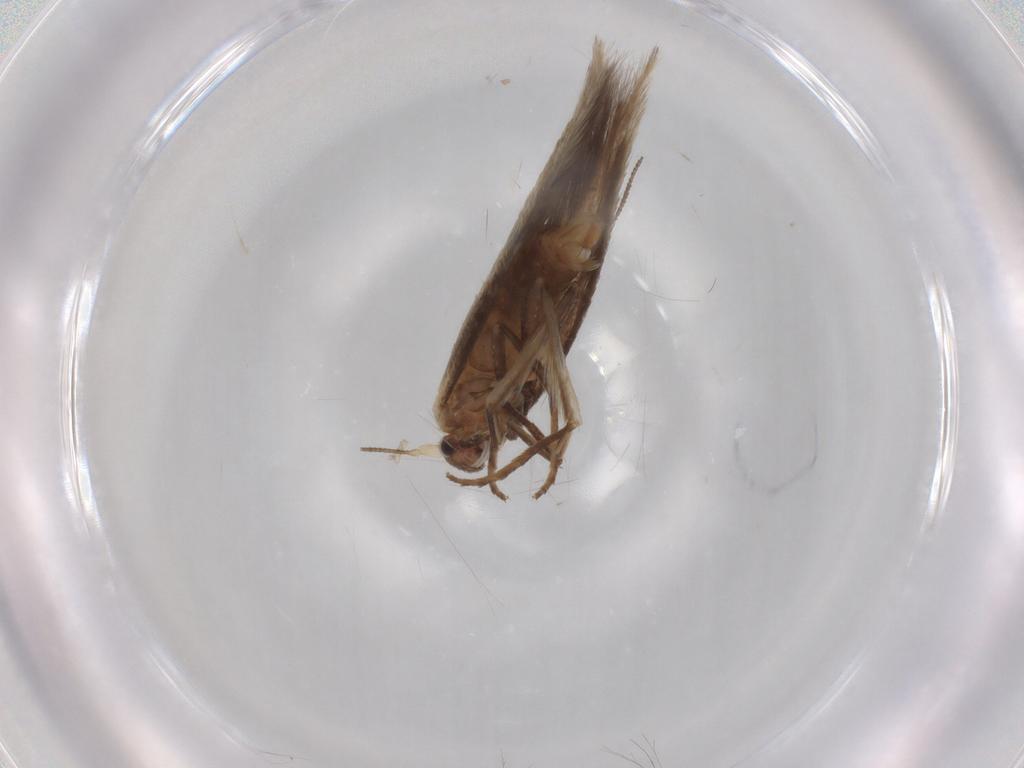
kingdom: Animalia
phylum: Arthropoda
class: Insecta
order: Lepidoptera
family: Bucculatricidae
